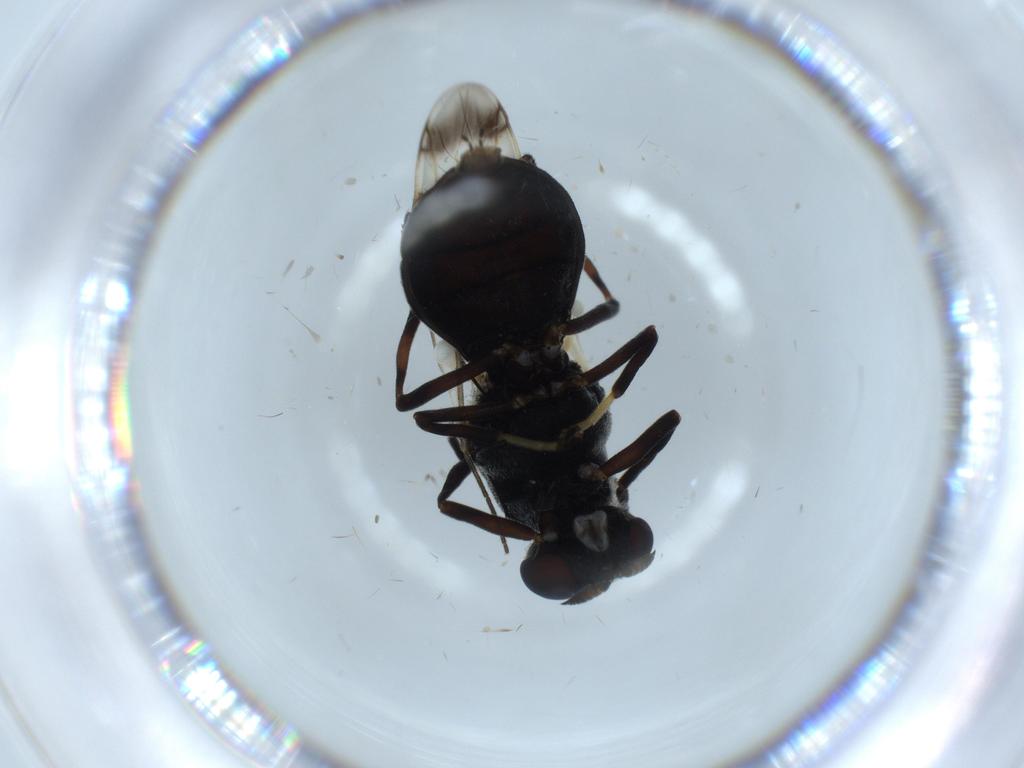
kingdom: Animalia
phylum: Arthropoda
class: Insecta
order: Diptera
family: Stratiomyidae
